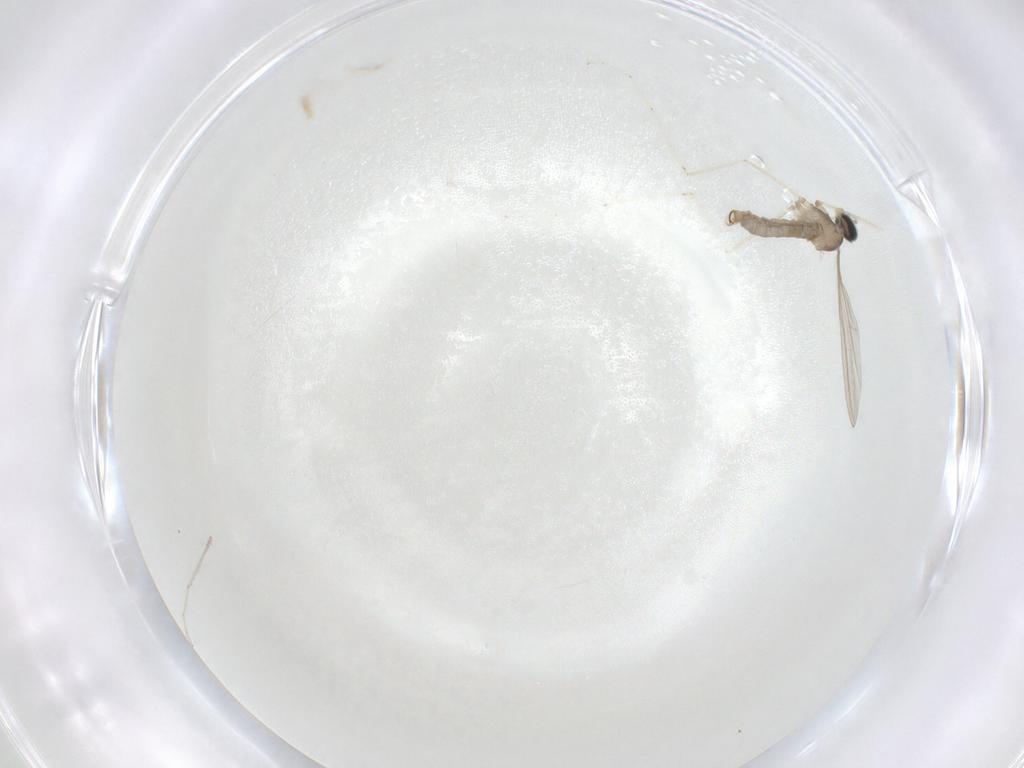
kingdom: Animalia
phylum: Arthropoda
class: Insecta
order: Diptera
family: Cecidomyiidae
